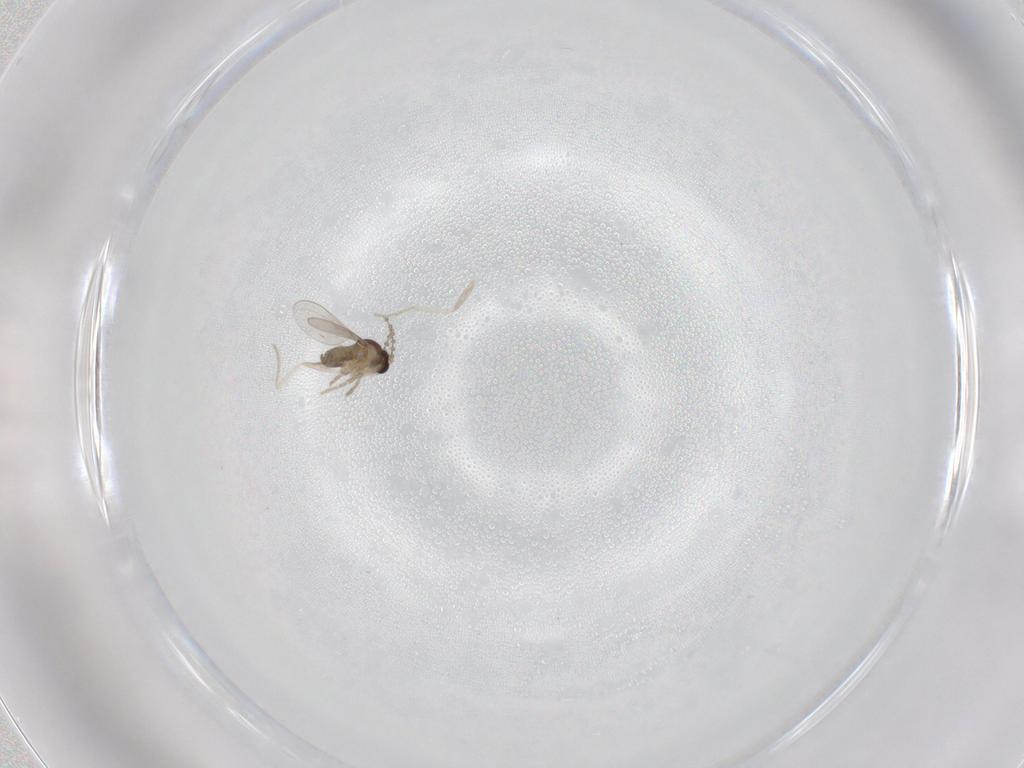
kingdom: Animalia
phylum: Arthropoda
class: Insecta
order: Diptera
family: Cecidomyiidae
